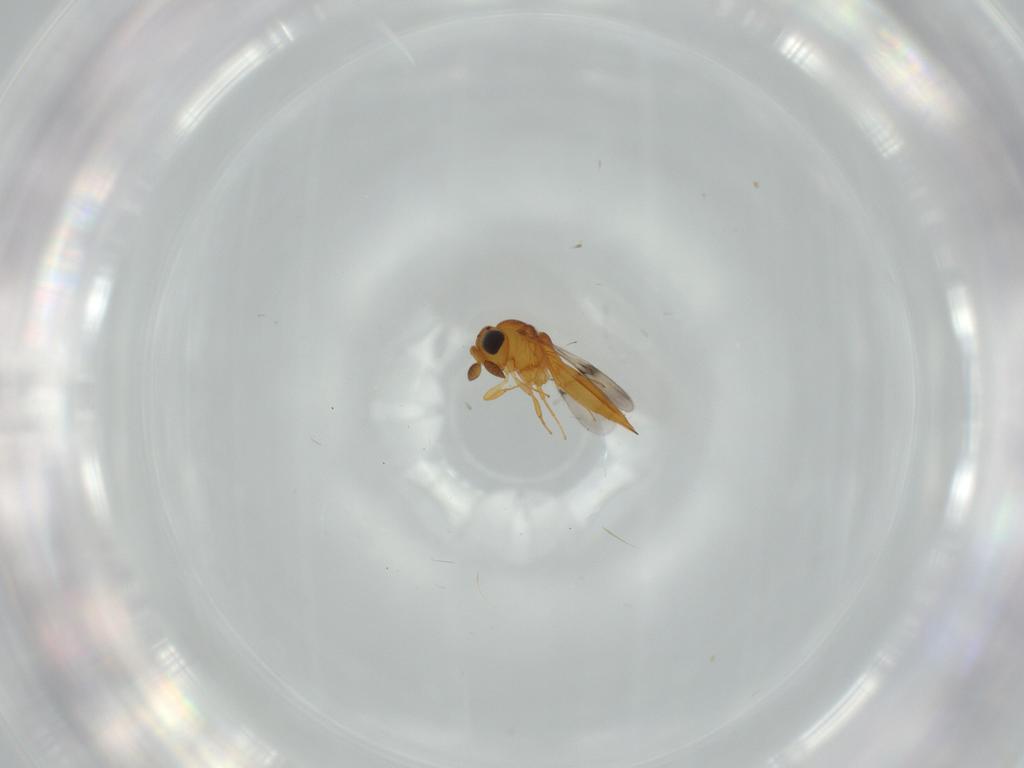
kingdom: Animalia
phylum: Arthropoda
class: Insecta
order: Hymenoptera
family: Scelionidae
